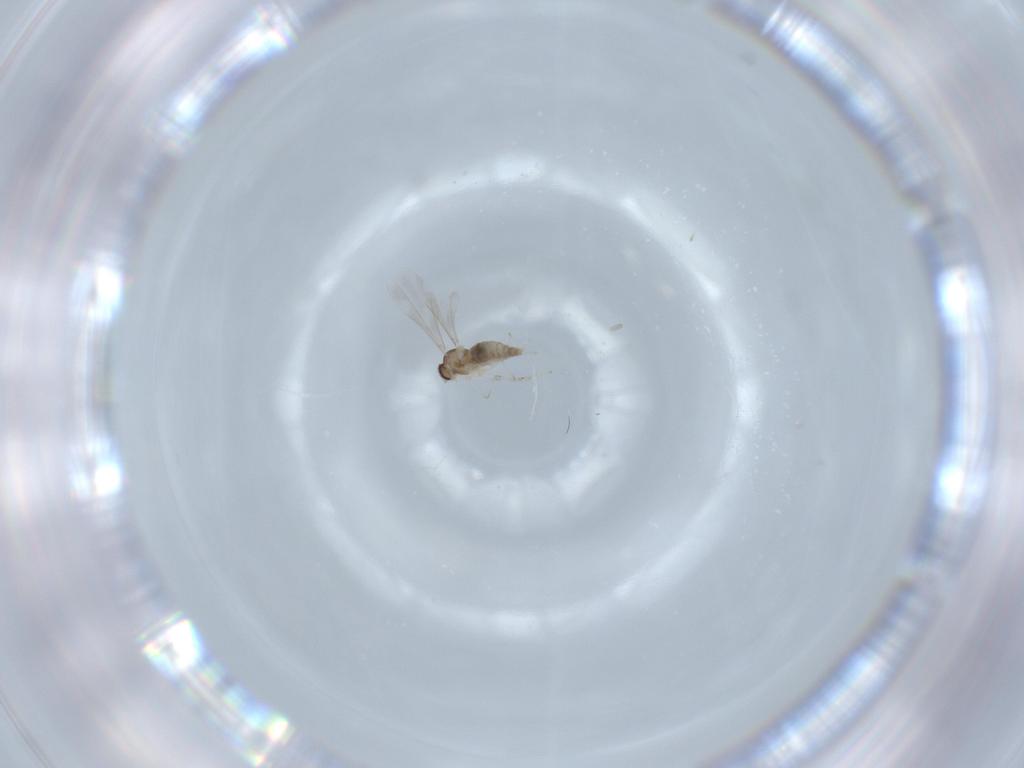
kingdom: Animalia
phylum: Arthropoda
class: Insecta
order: Diptera
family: Cecidomyiidae
